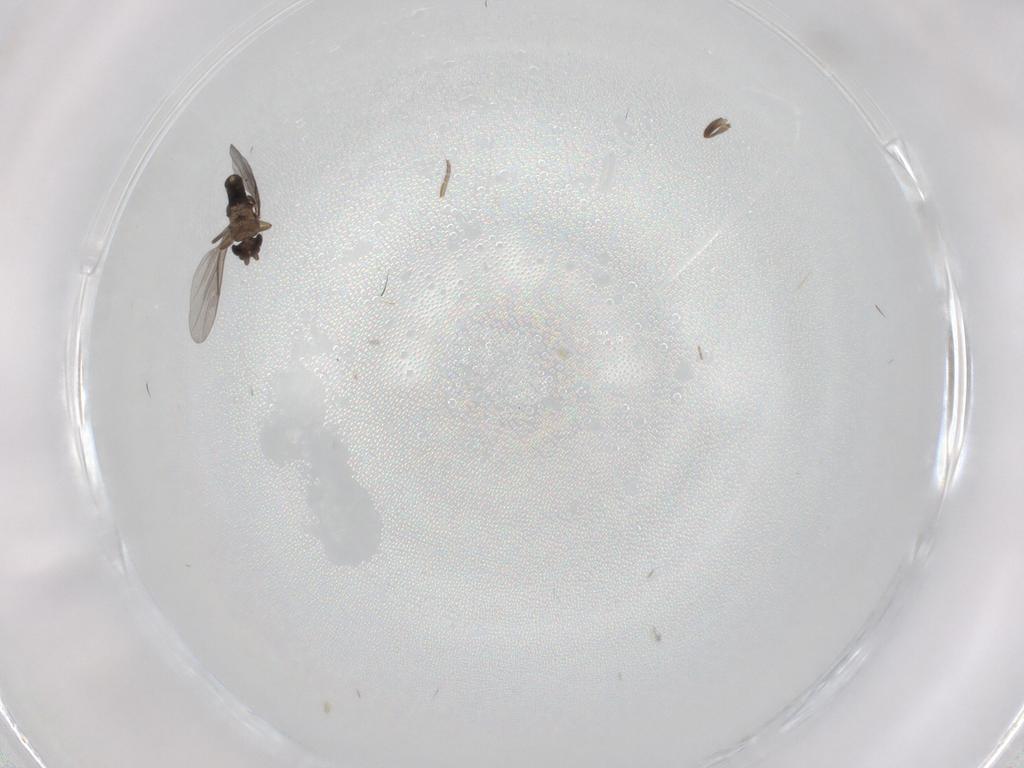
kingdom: Animalia
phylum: Arthropoda
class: Insecta
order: Diptera
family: Sciaridae
